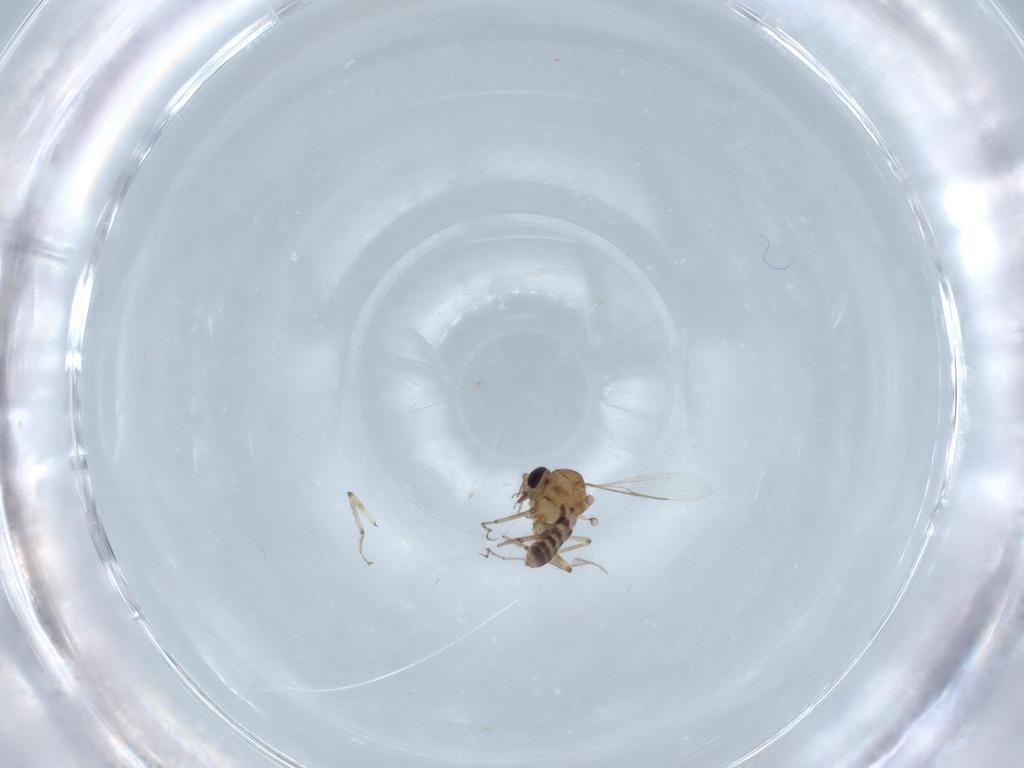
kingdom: Animalia
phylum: Arthropoda
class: Insecta
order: Diptera
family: Ceratopogonidae
